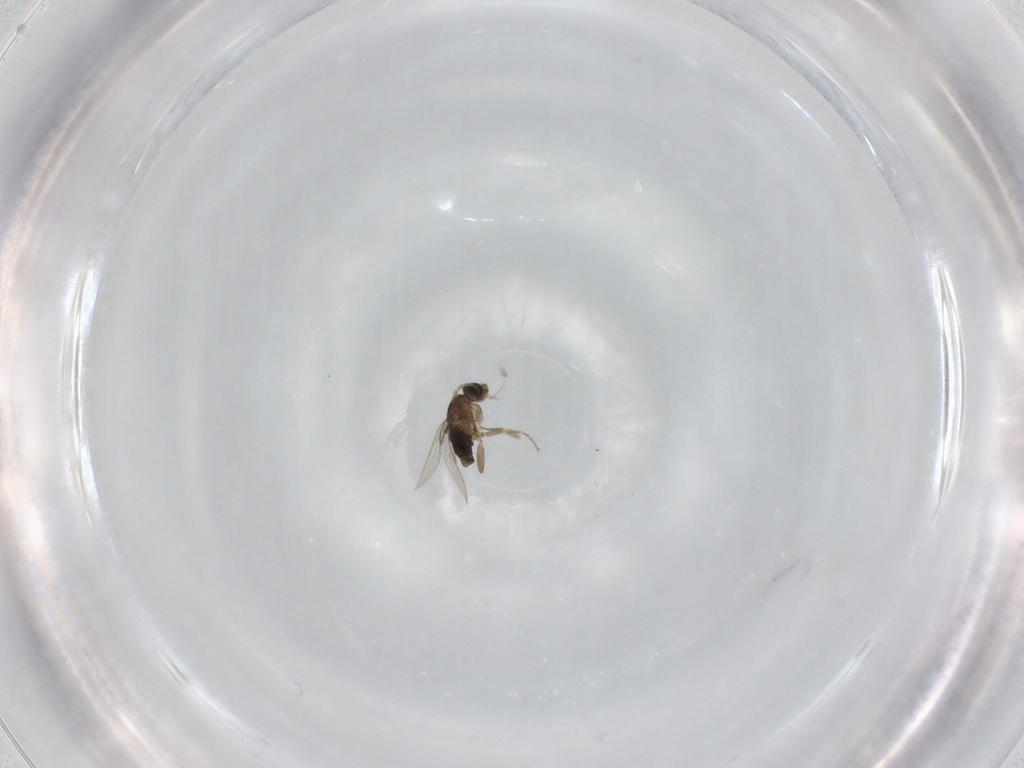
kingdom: Animalia
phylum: Arthropoda
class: Insecta
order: Diptera
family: Phoridae
